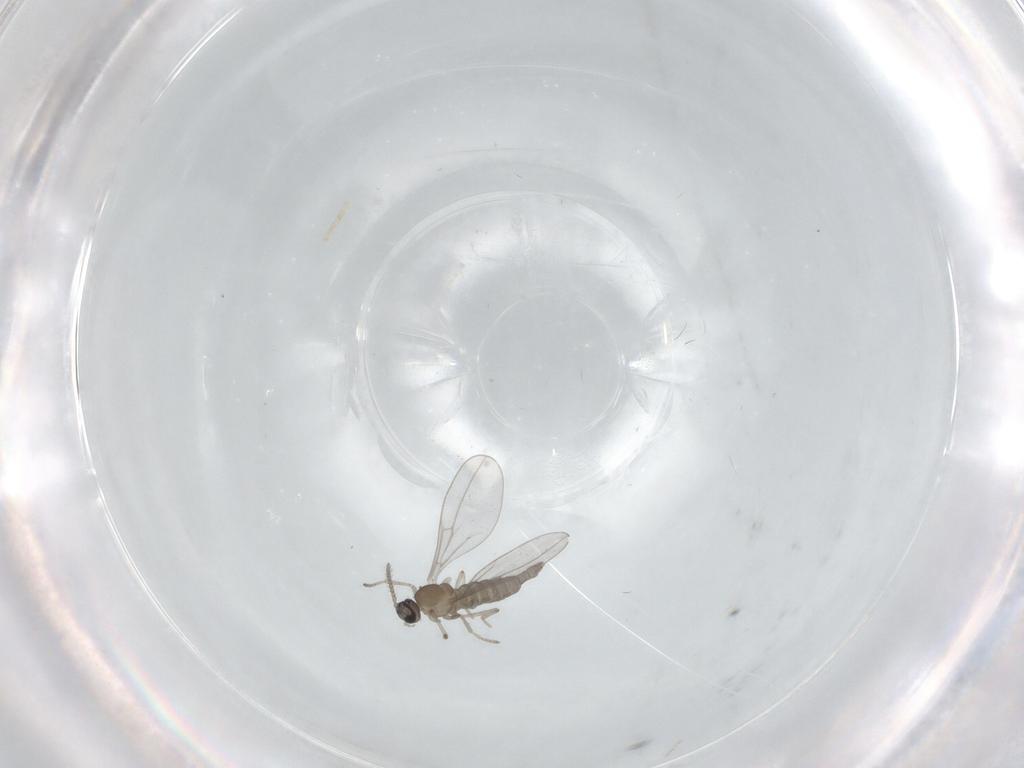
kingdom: Animalia
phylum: Arthropoda
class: Insecta
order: Diptera
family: Cecidomyiidae
